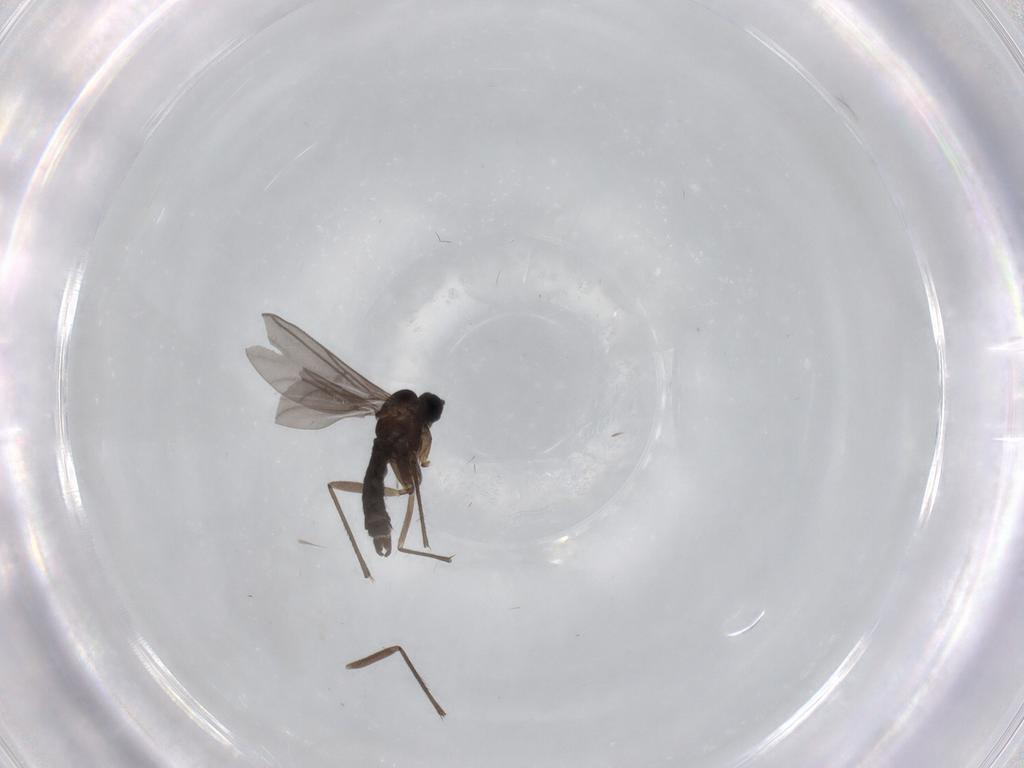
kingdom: Animalia
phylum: Arthropoda
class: Insecta
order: Diptera
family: Sciaridae
